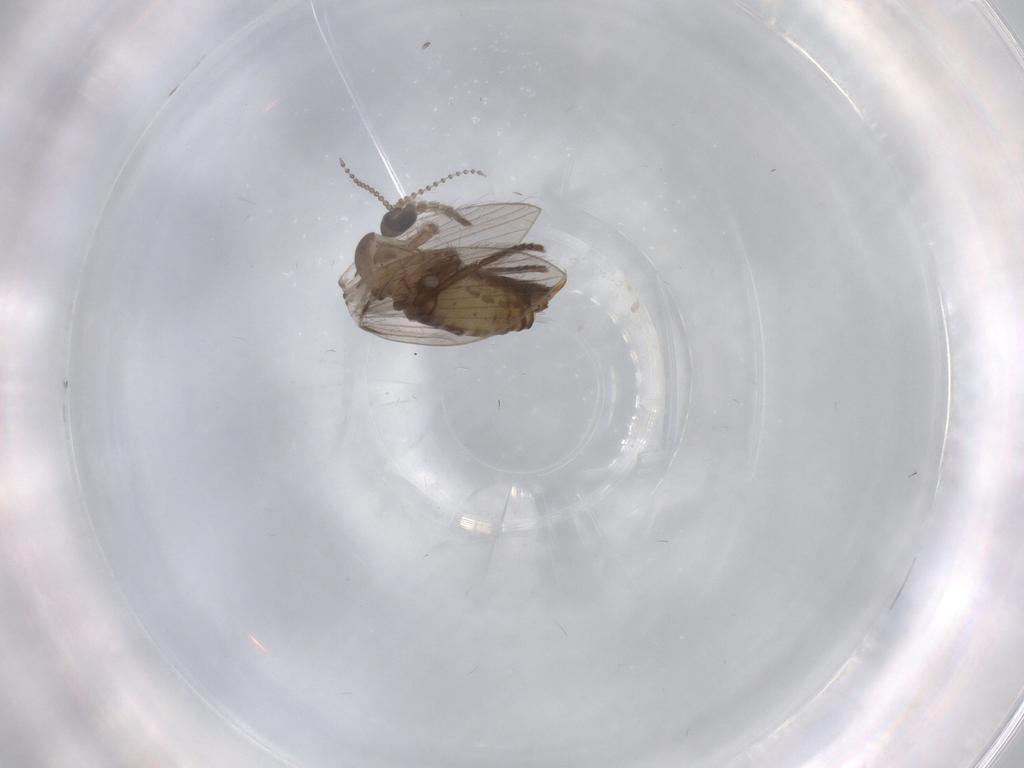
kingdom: Animalia
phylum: Arthropoda
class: Insecta
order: Diptera
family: Psychodidae
